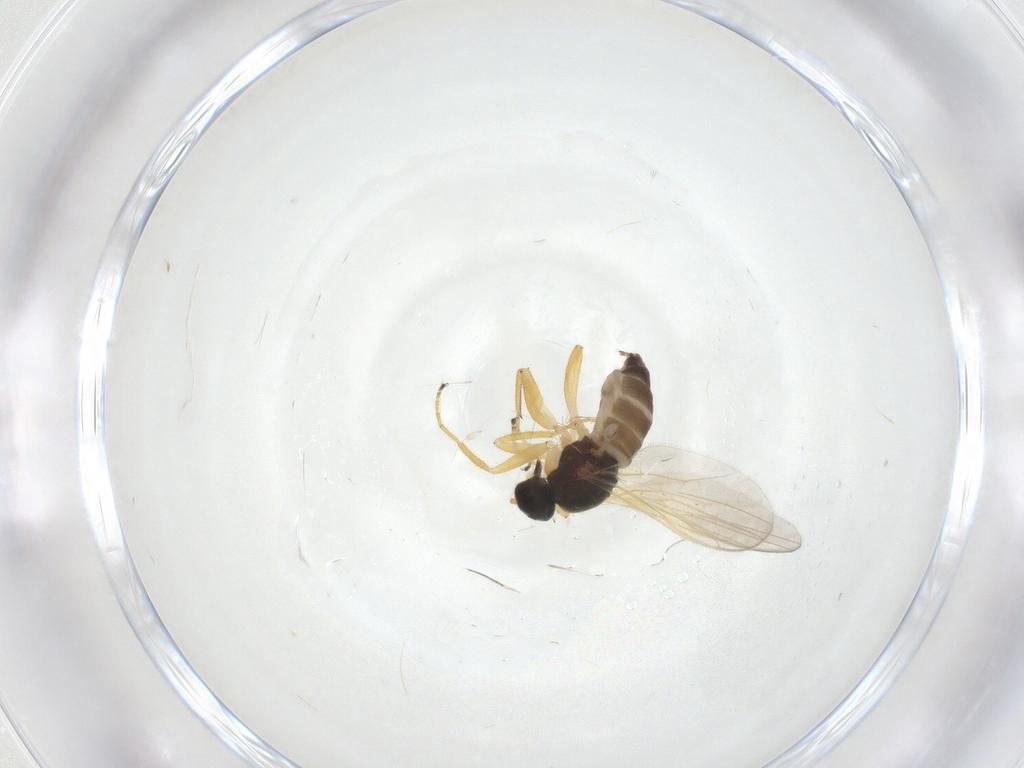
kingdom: Animalia
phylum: Arthropoda
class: Insecta
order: Diptera
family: Hybotidae
